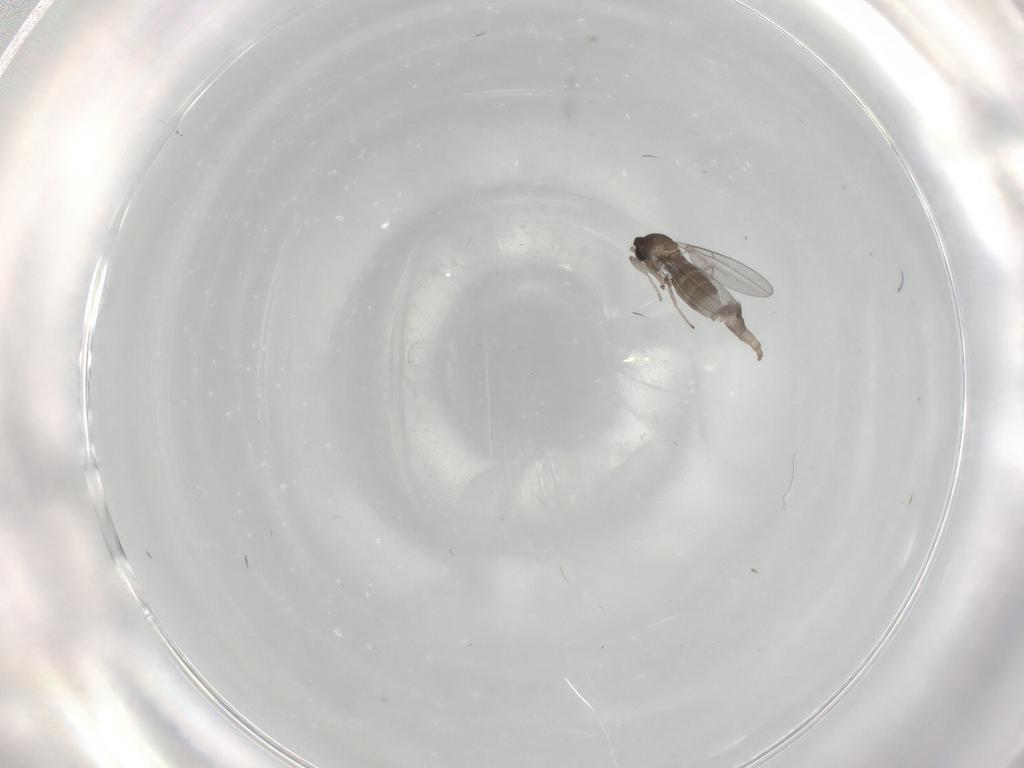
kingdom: Animalia
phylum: Arthropoda
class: Insecta
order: Diptera
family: Cecidomyiidae
